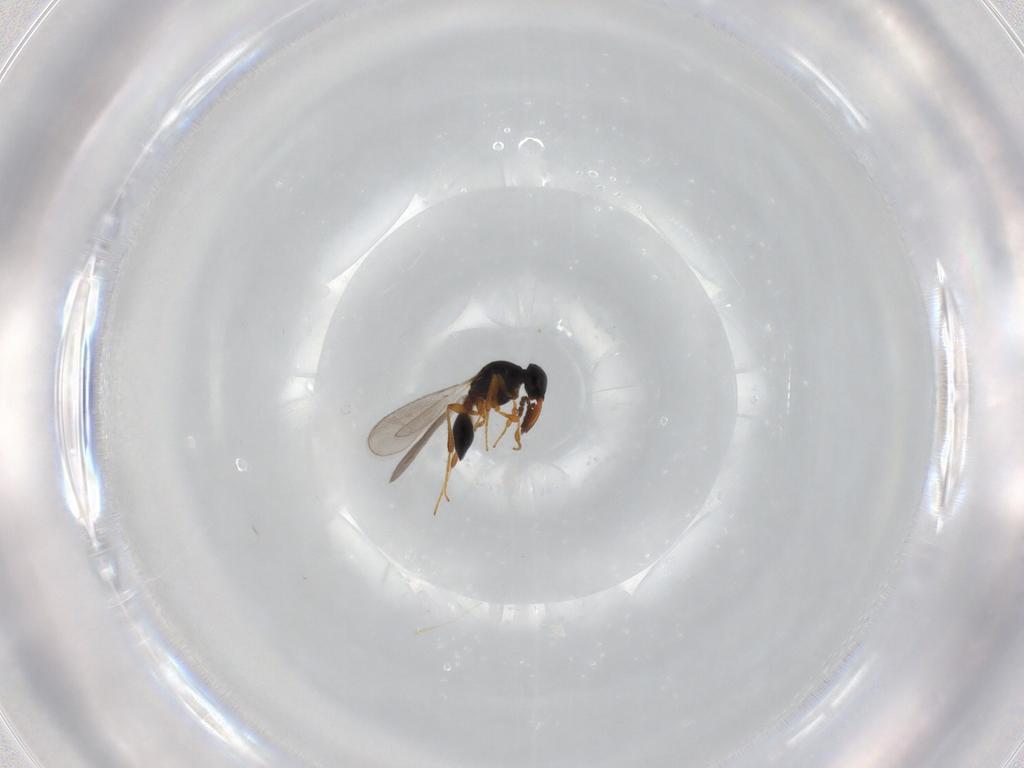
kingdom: Animalia
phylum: Arthropoda
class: Insecta
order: Hymenoptera
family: Platygastridae
